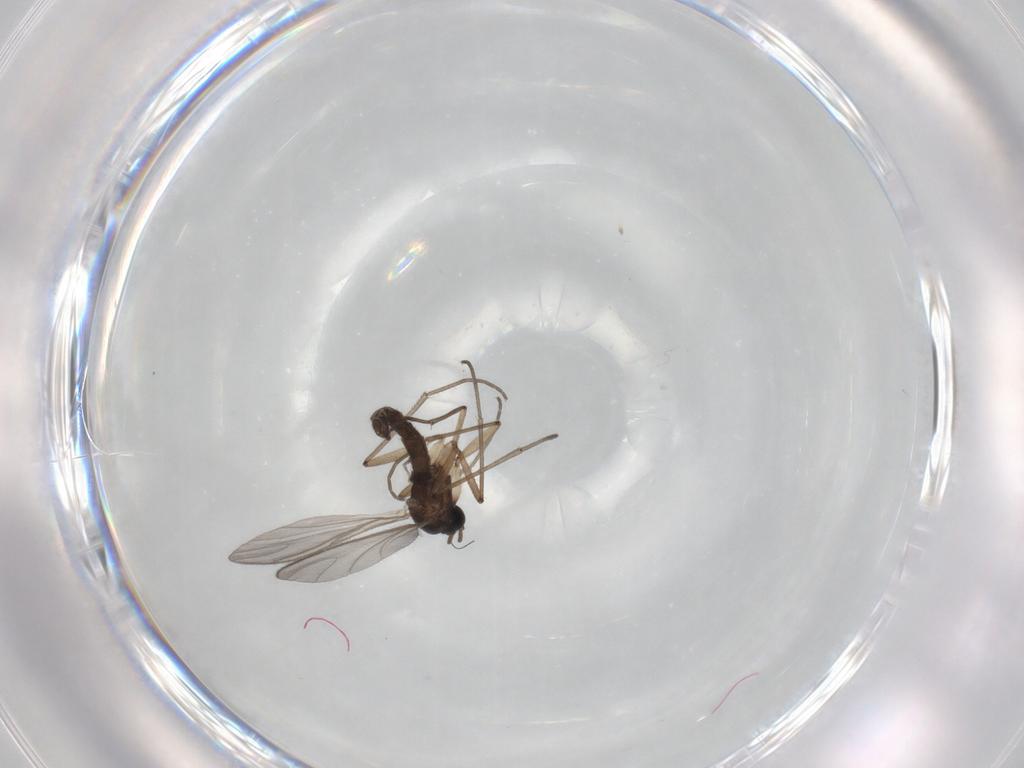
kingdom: Animalia
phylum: Arthropoda
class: Insecta
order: Diptera
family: Sciaridae
